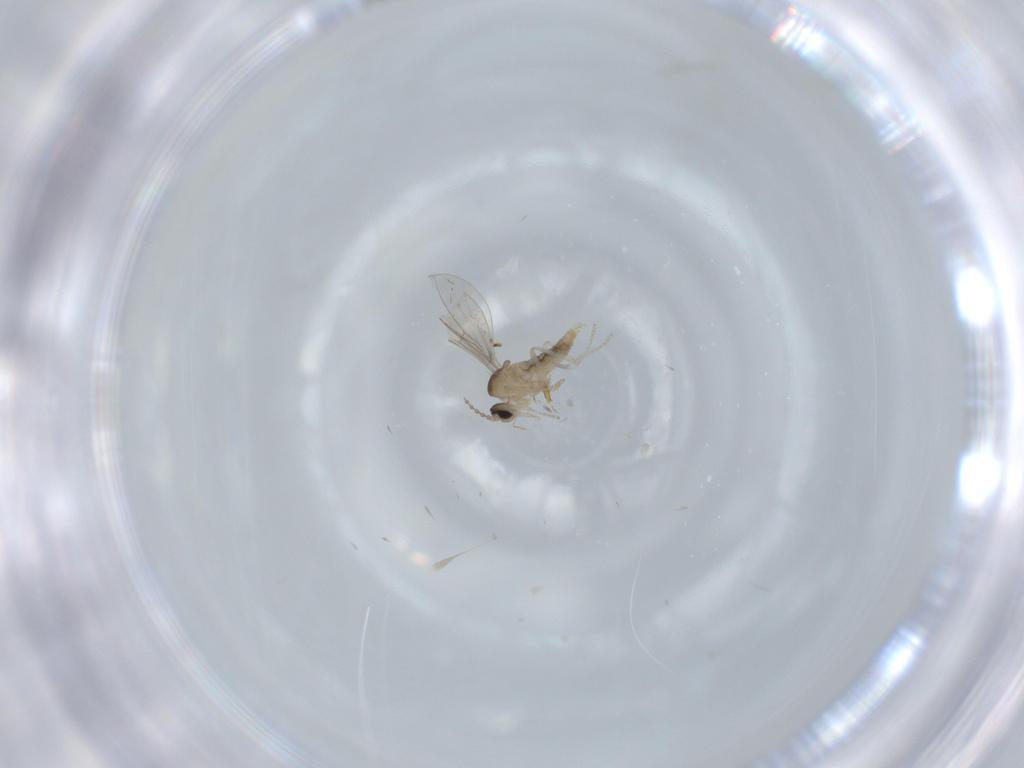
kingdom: Animalia
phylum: Arthropoda
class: Insecta
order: Diptera
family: Cecidomyiidae
